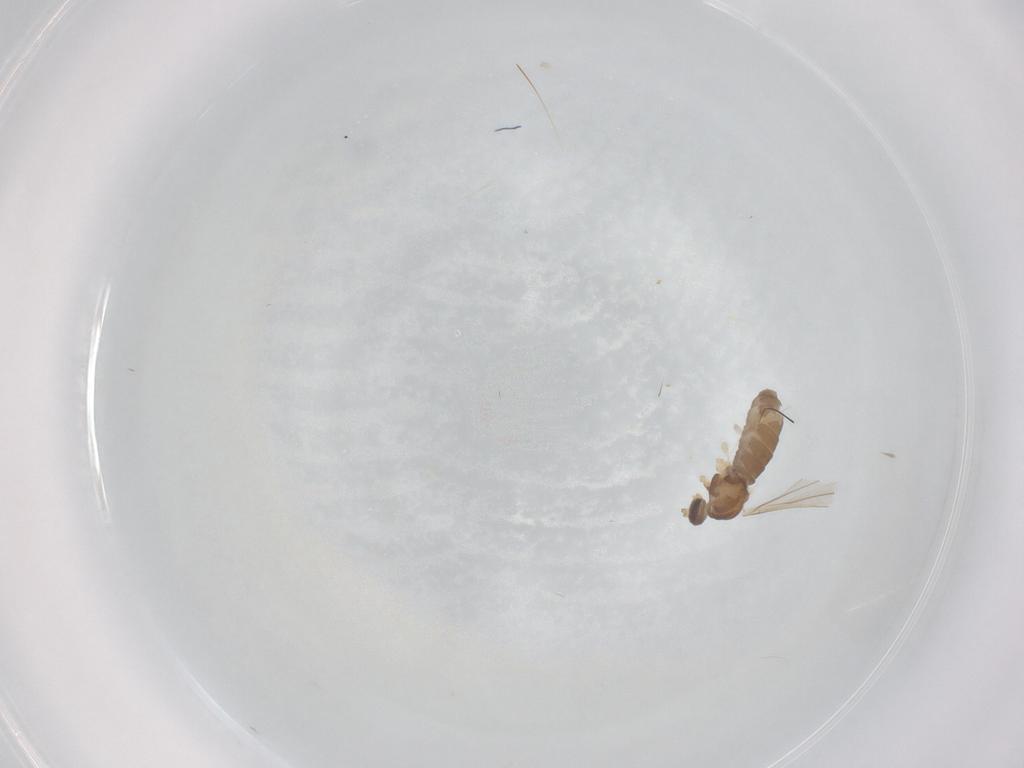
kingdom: Animalia
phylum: Arthropoda
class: Insecta
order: Diptera
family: Cecidomyiidae
